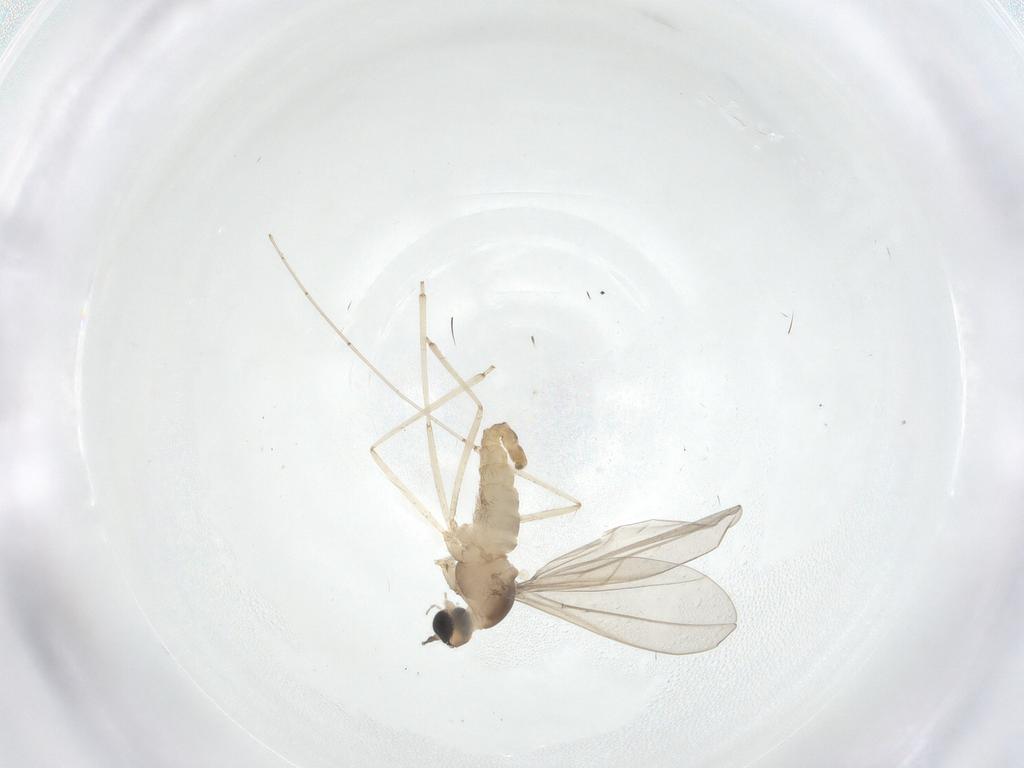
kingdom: Animalia
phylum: Arthropoda
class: Insecta
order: Diptera
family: Cecidomyiidae
